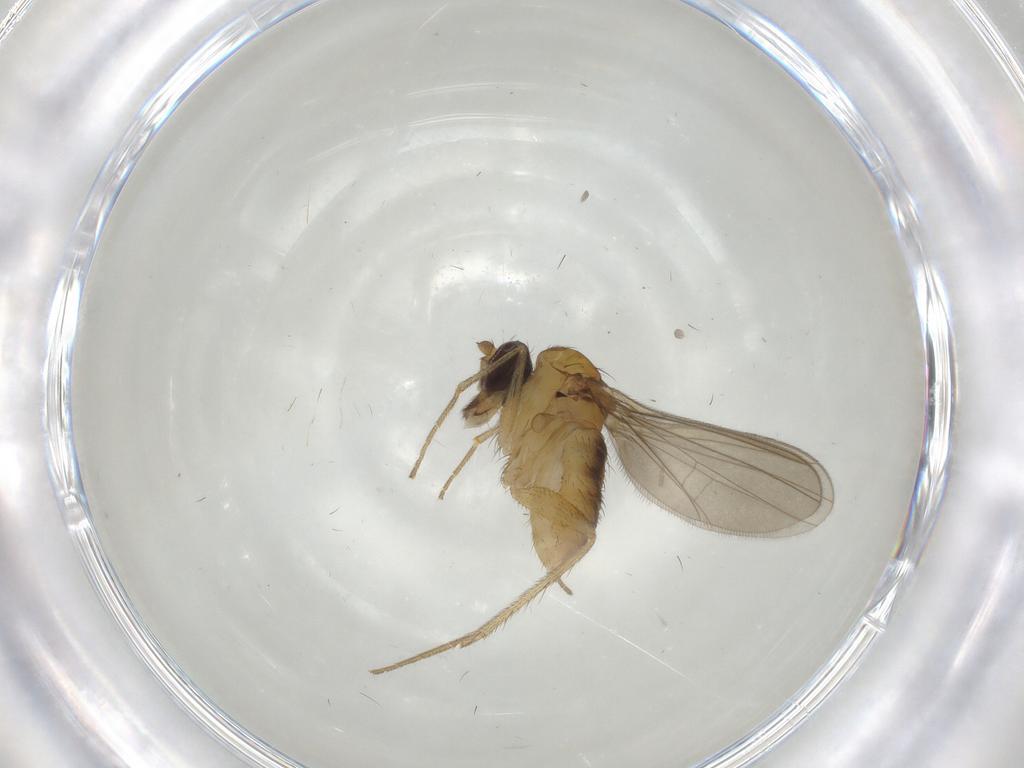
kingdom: Animalia
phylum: Arthropoda
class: Insecta
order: Diptera
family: Dolichopodidae
